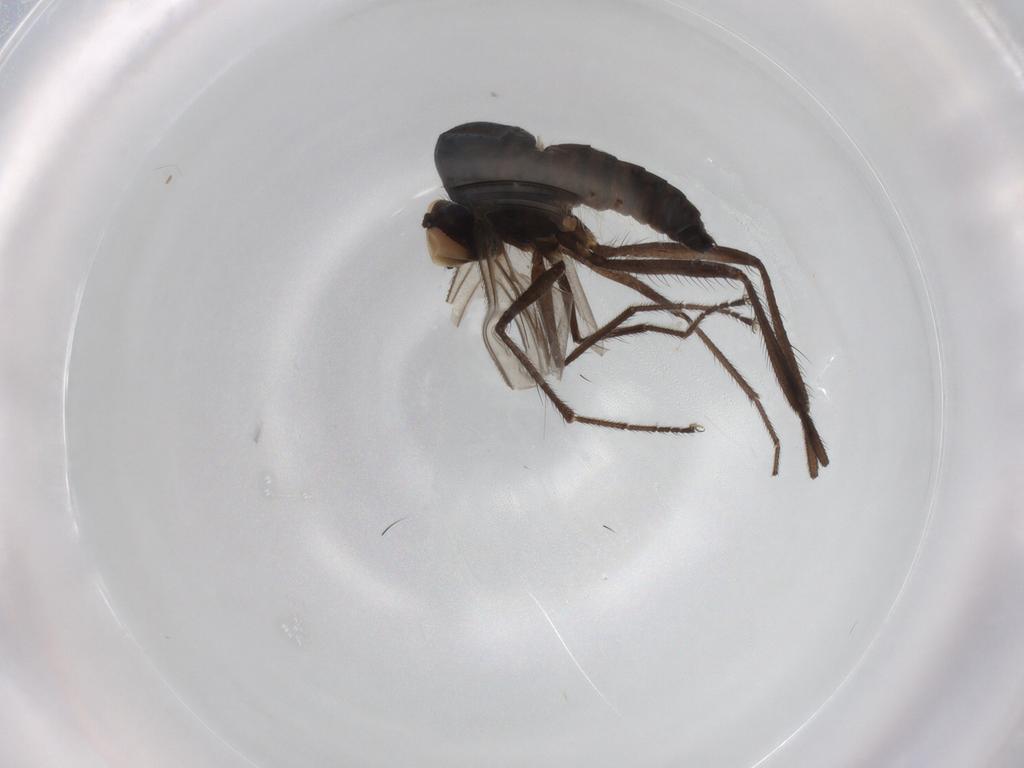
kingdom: Animalia
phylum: Arthropoda
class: Insecta
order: Diptera
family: Hybotidae
